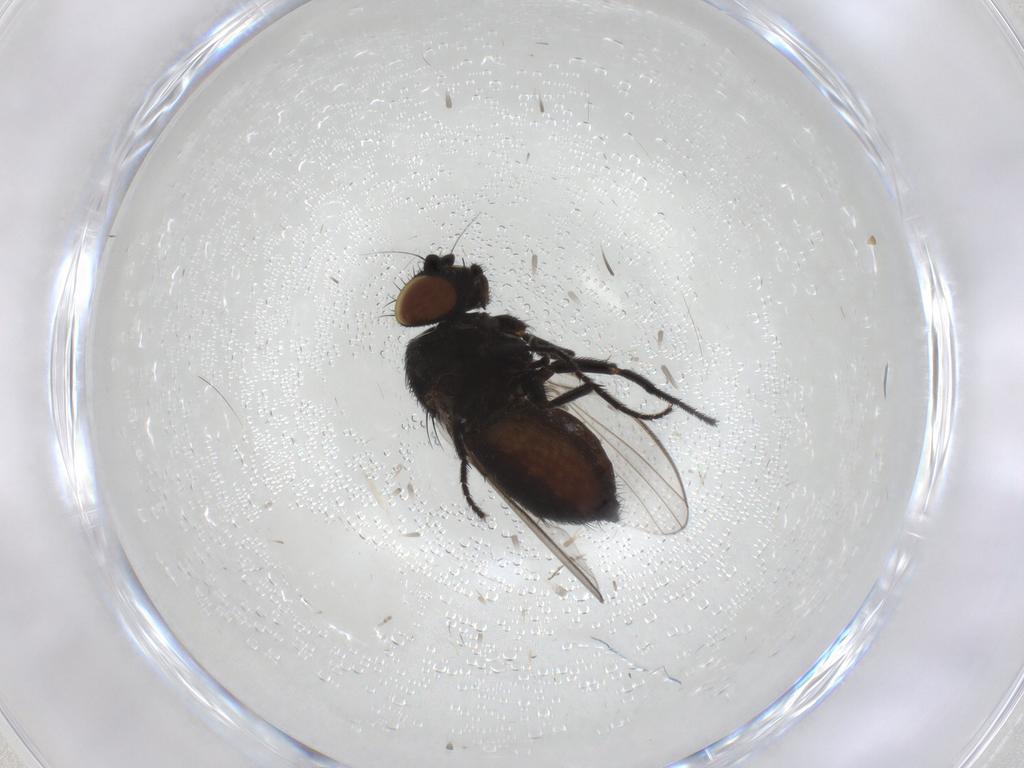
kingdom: Animalia
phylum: Arthropoda
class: Insecta
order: Diptera
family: Milichiidae
